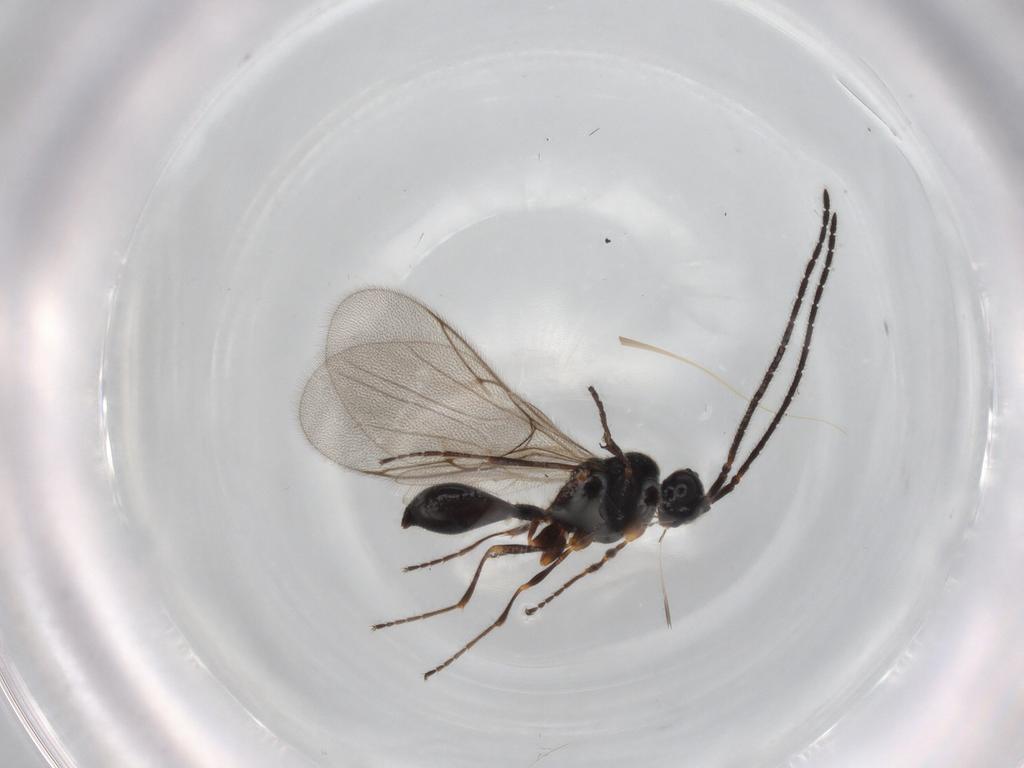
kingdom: Animalia
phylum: Arthropoda
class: Insecta
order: Hymenoptera
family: Diapriidae
